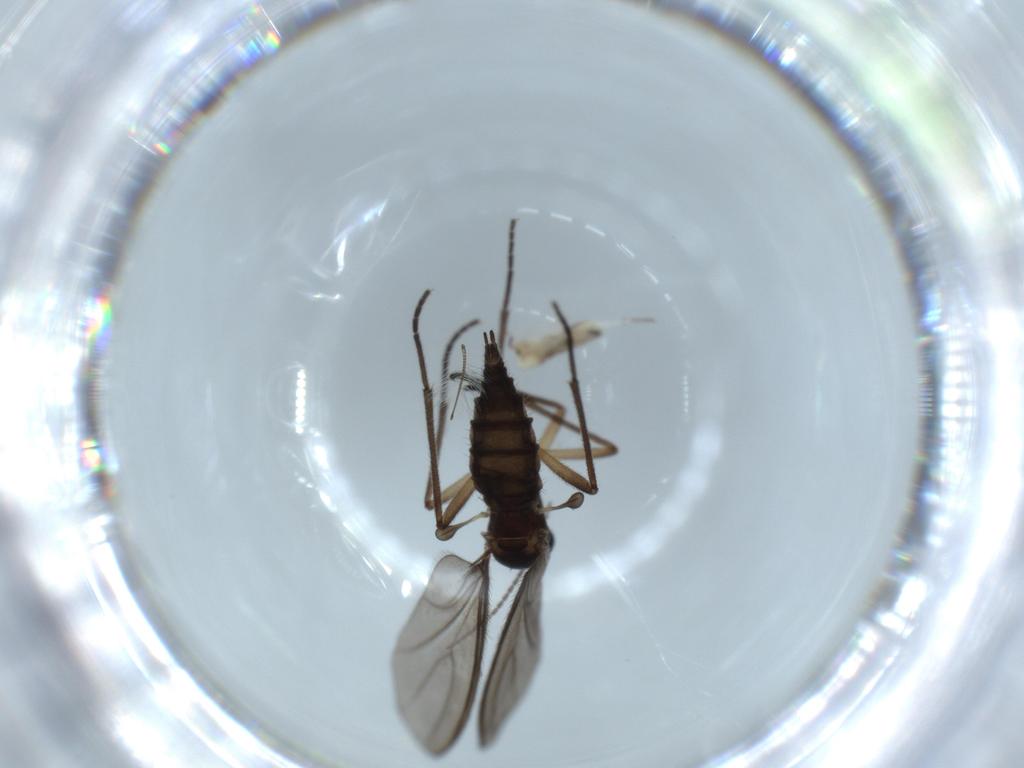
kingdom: Animalia
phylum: Arthropoda
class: Insecta
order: Diptera
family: Sciaridae
